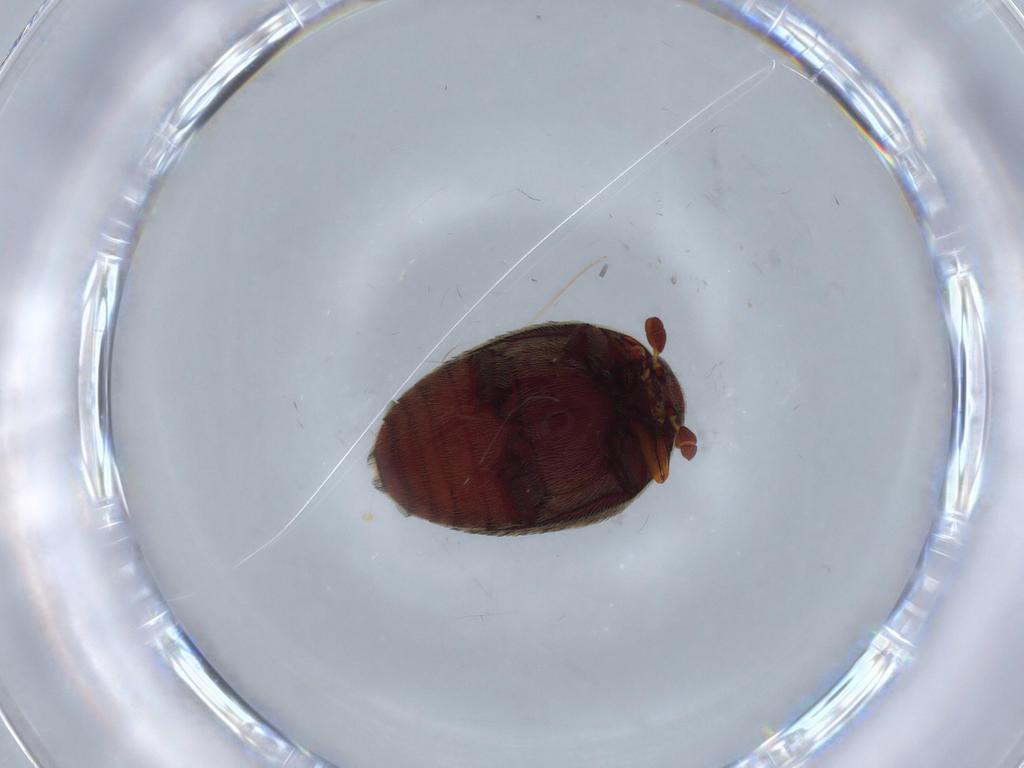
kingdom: Animalia
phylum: Arthropoda
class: Insecta
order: Coleoptera
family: Dermestidae
